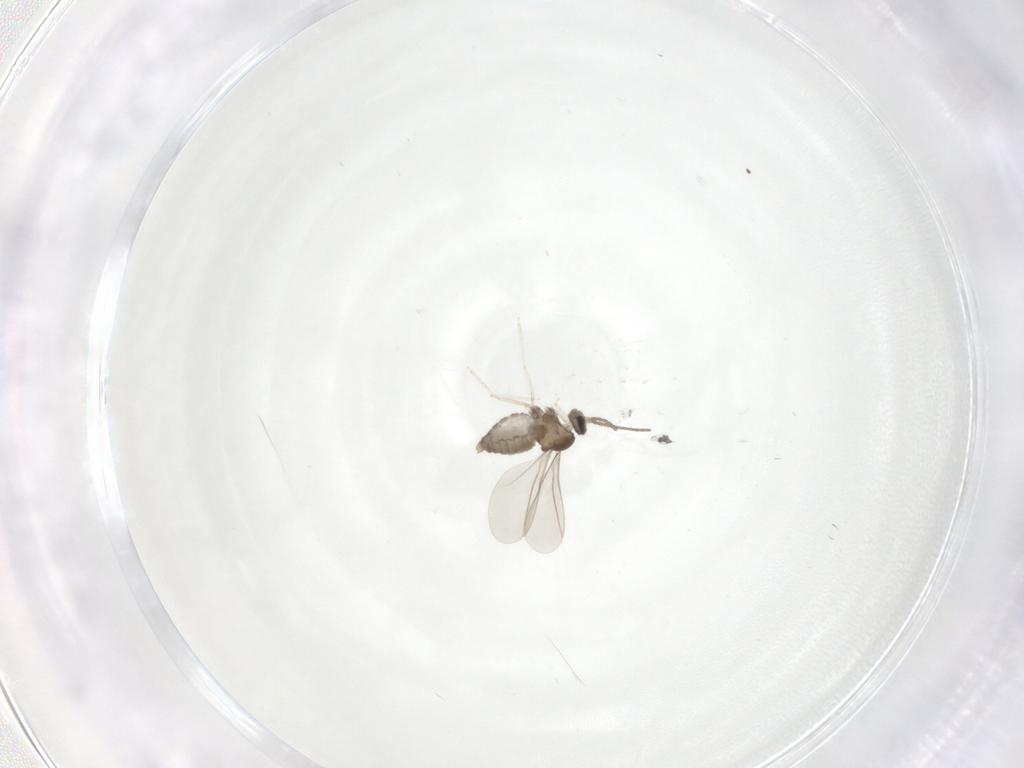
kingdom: Animalia
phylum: Arthropoda
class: Insecta
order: Diptera
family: Cecidomyiidae
